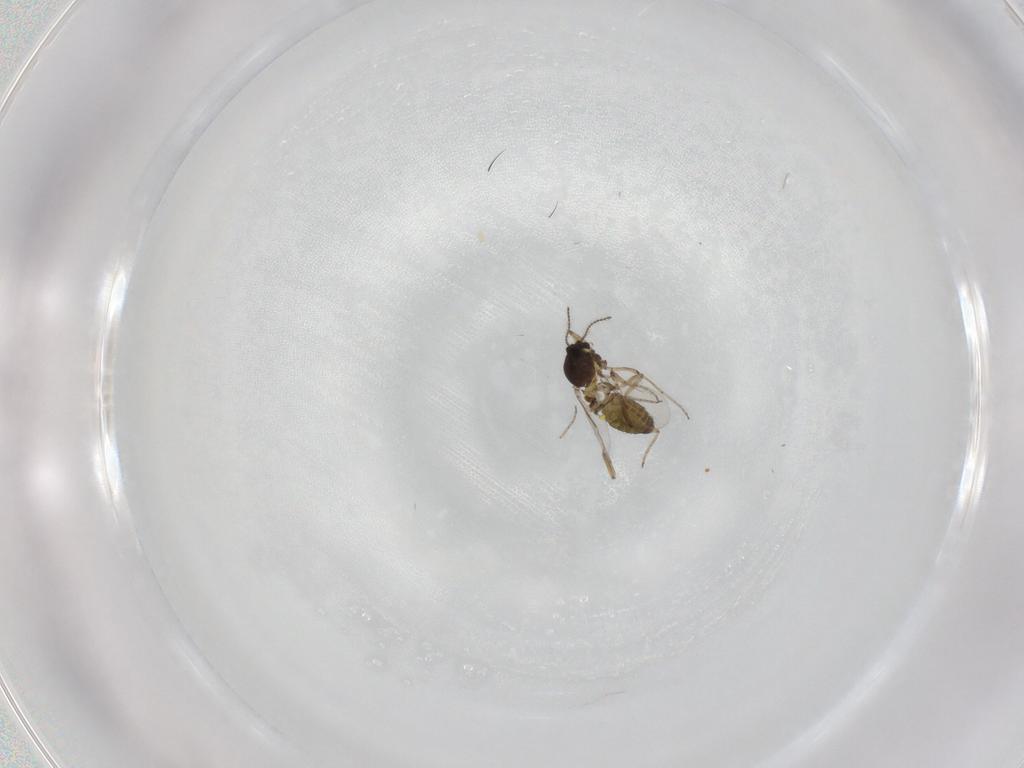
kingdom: Animalia
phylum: Arthropoda
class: Insecta
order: Diptera
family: Ceratopogonidae
